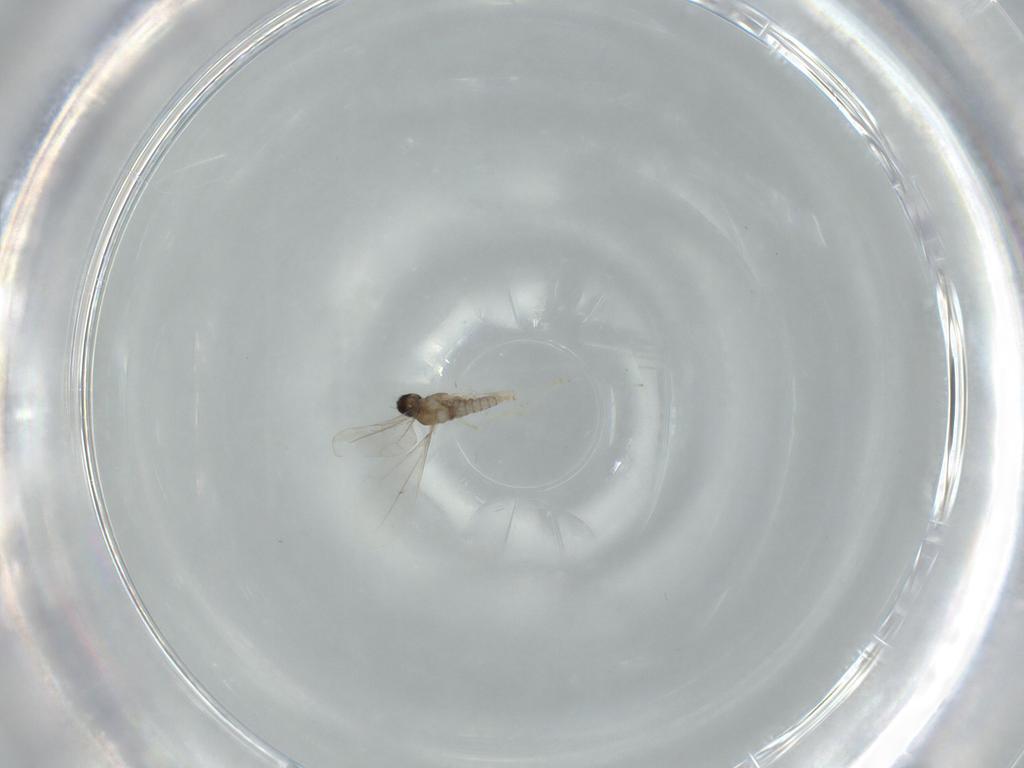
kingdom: Animalia
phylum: Arthropoda
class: Insecta
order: Diptera
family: Cecidomyiidae
